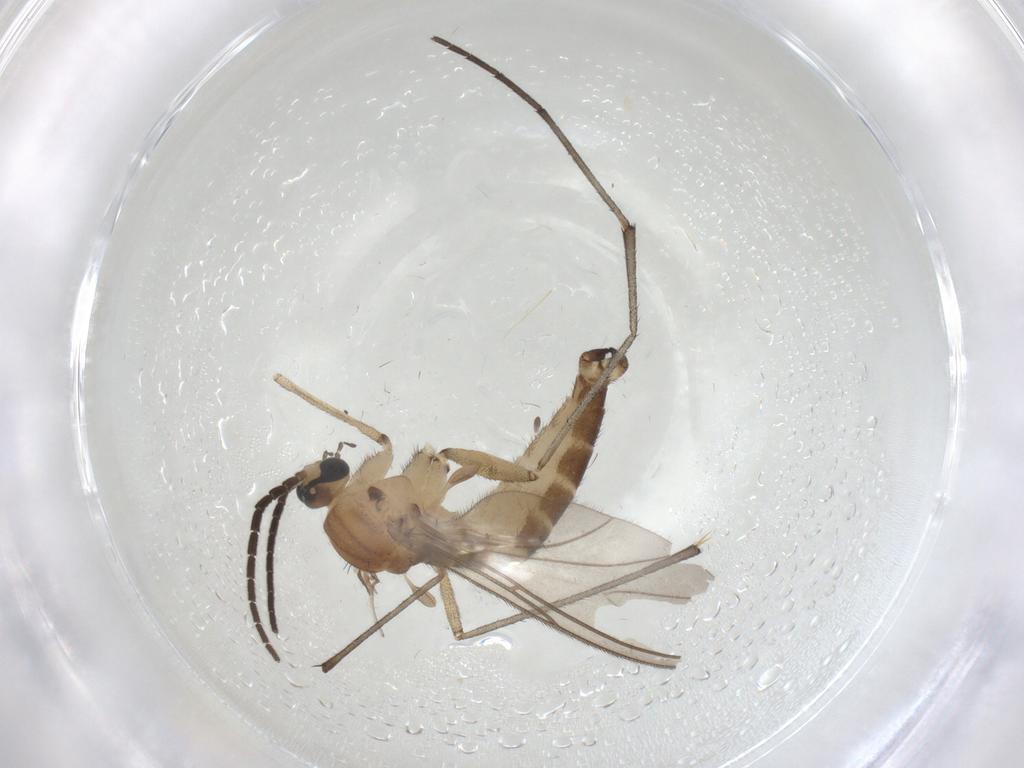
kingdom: Animalia
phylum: Arthropoda
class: Insecta
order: Diptera
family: Sciaridae
